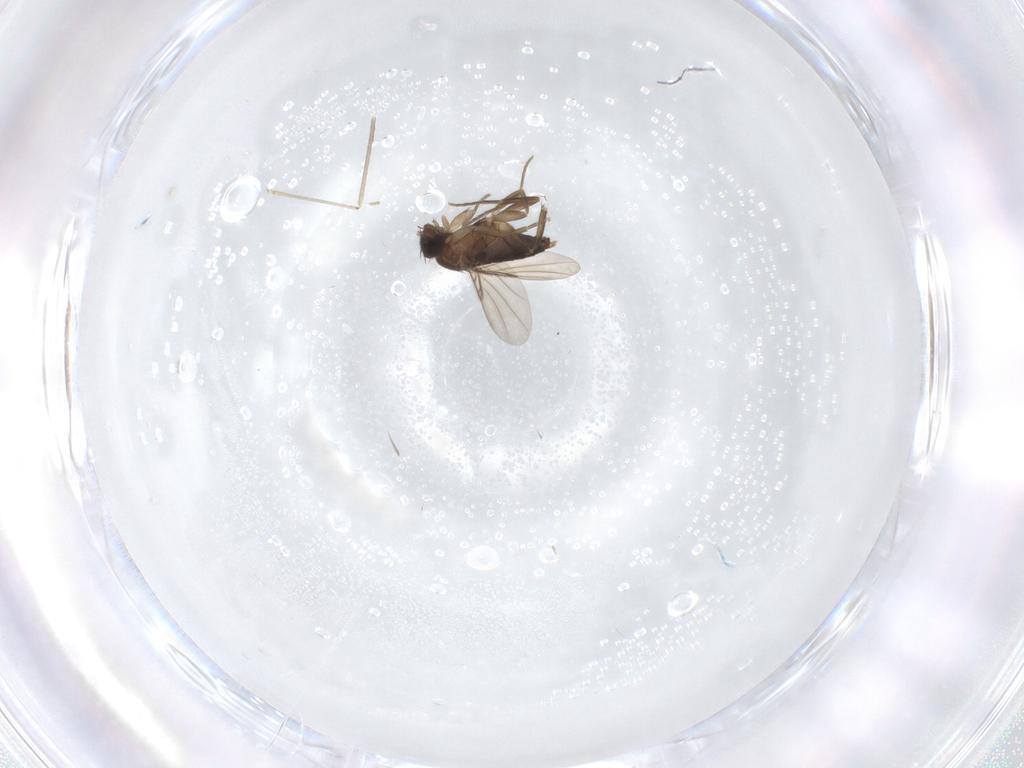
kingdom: Animalia
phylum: Arthropoda
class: Insecta
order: Diptera
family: Phoridae
